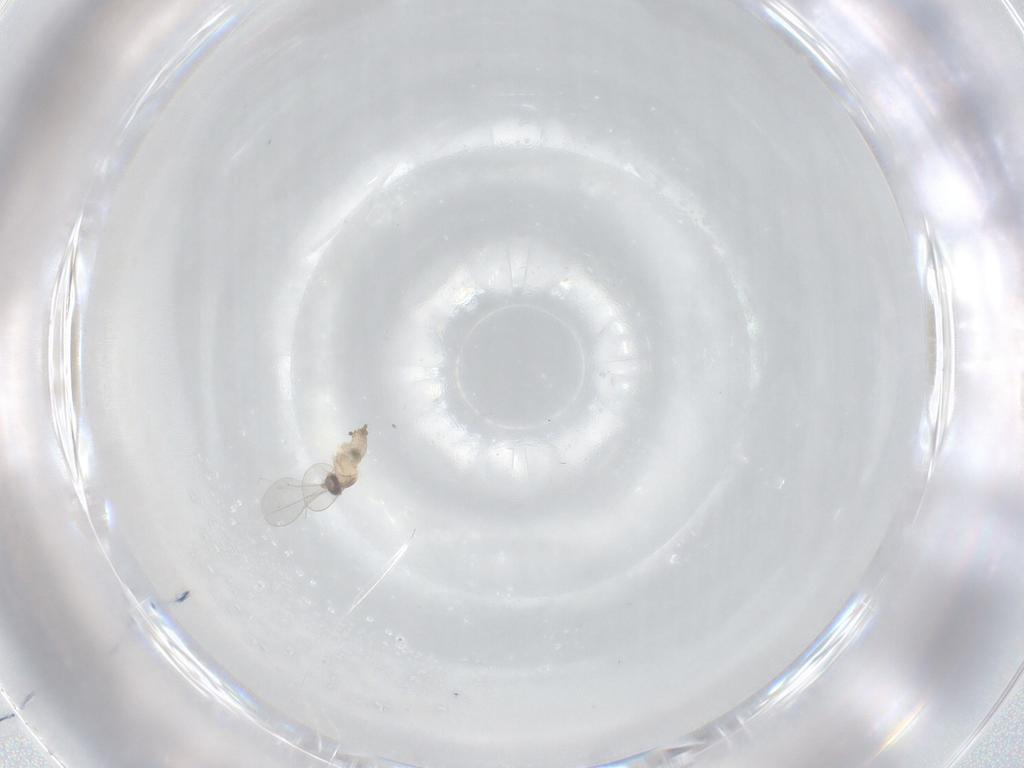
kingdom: Animalia
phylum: Arthropoda
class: Insecta
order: Diptera
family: Cecidomyiidae
